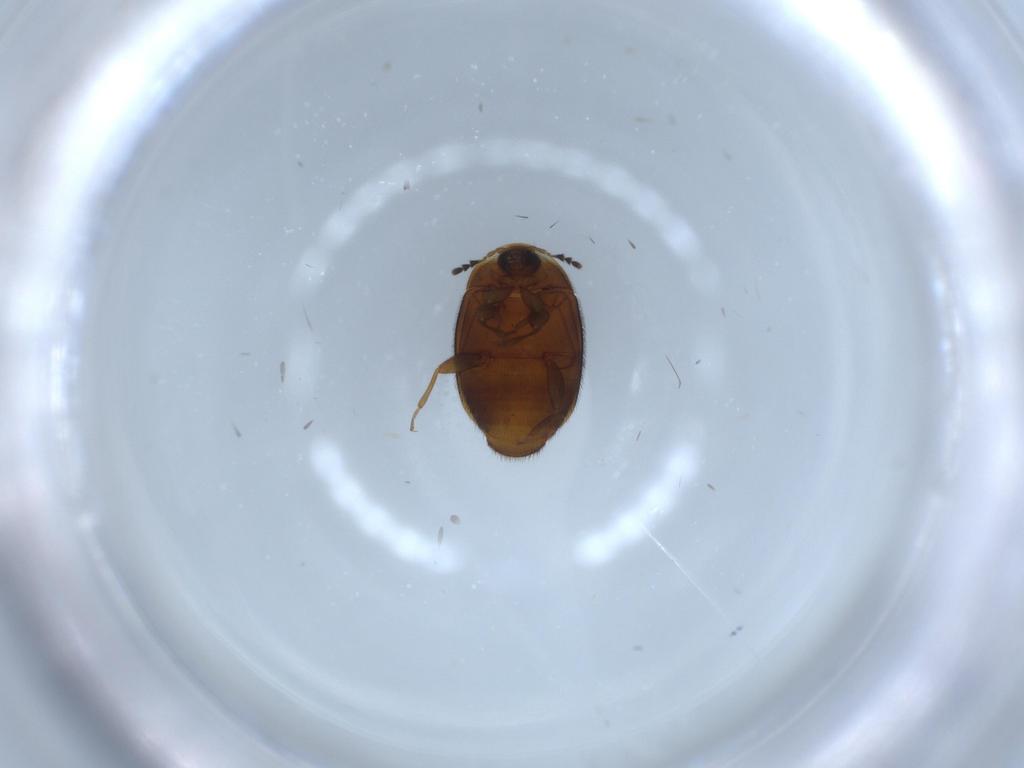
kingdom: Animalia
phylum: Arthropoda
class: Insecta
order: Coleoptera
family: Corylophidae
